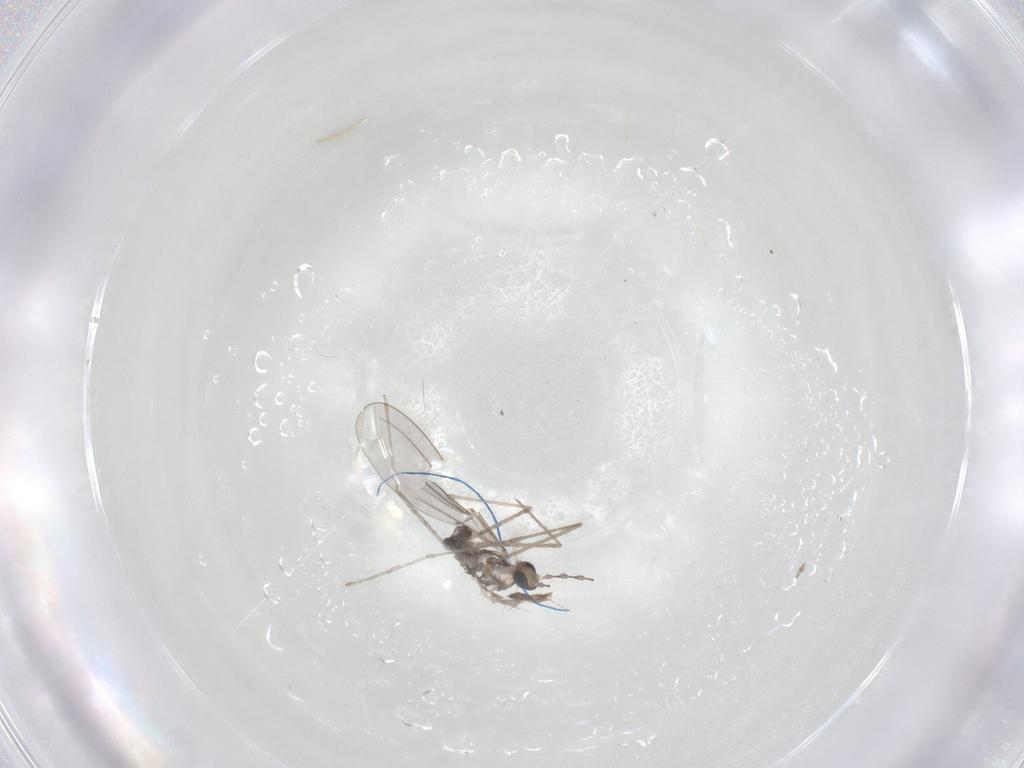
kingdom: Animalia
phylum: Arthropoda
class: Insecta
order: Diptera
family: Cecidomyiidae
